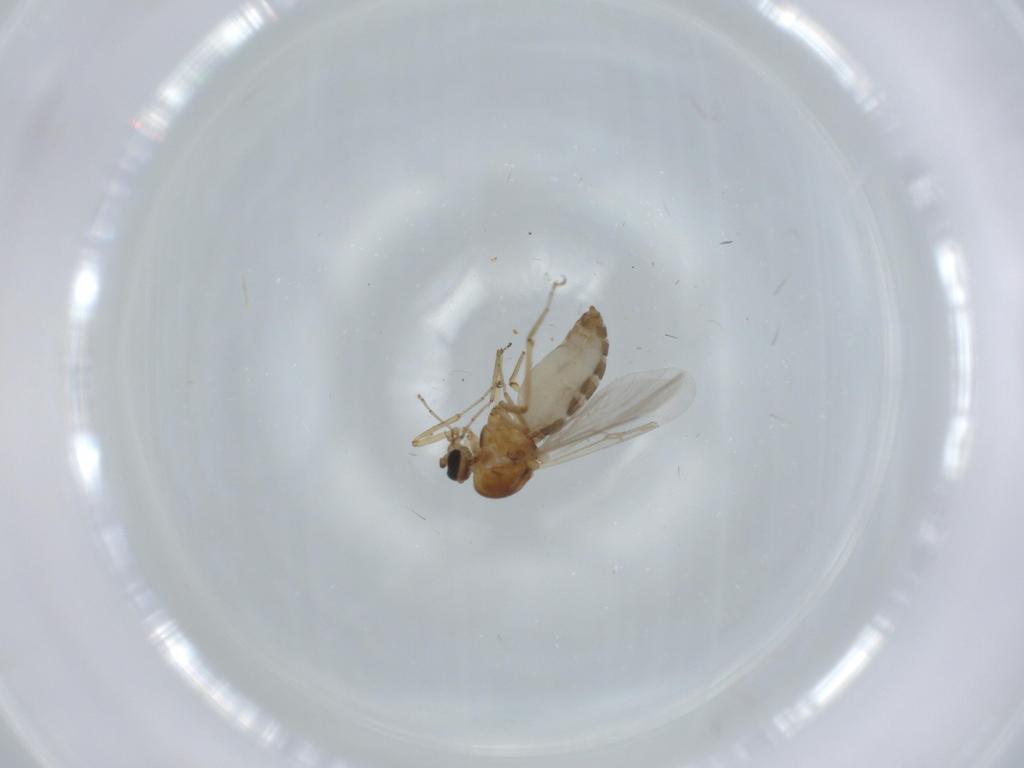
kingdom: Animalia
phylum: Arthropoda
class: Insecta
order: Diptera
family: Ceratopogonidae
